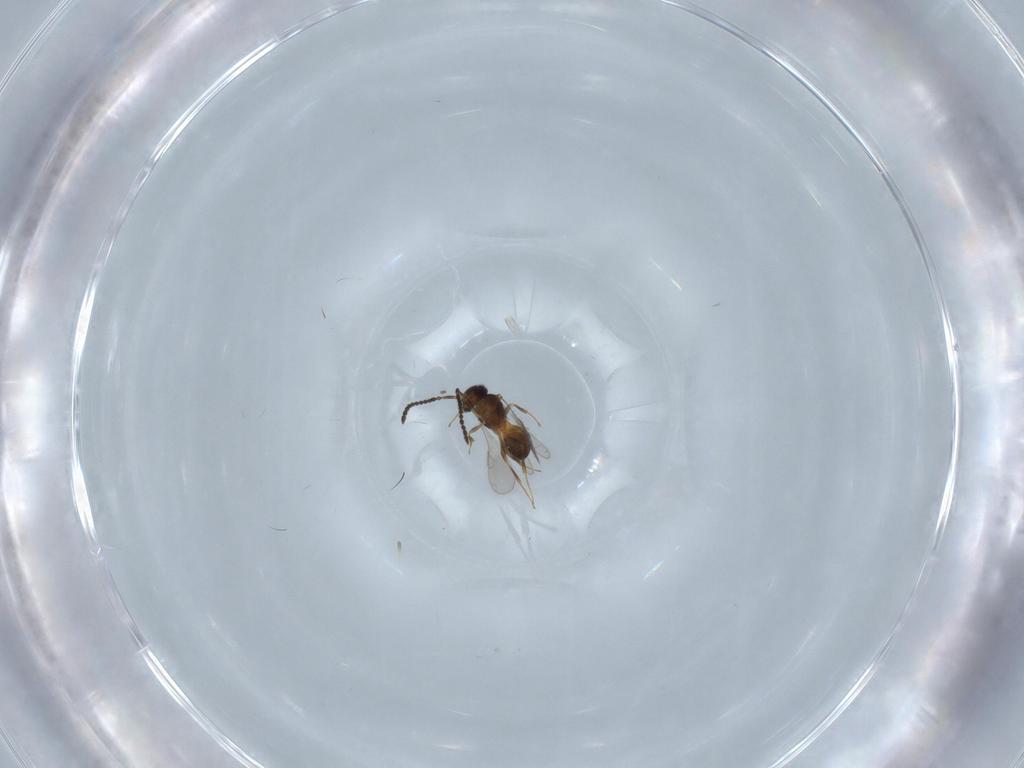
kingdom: Animalia
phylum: Arthropoda
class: Insecta
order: Hymenoptera
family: Scelionidae
